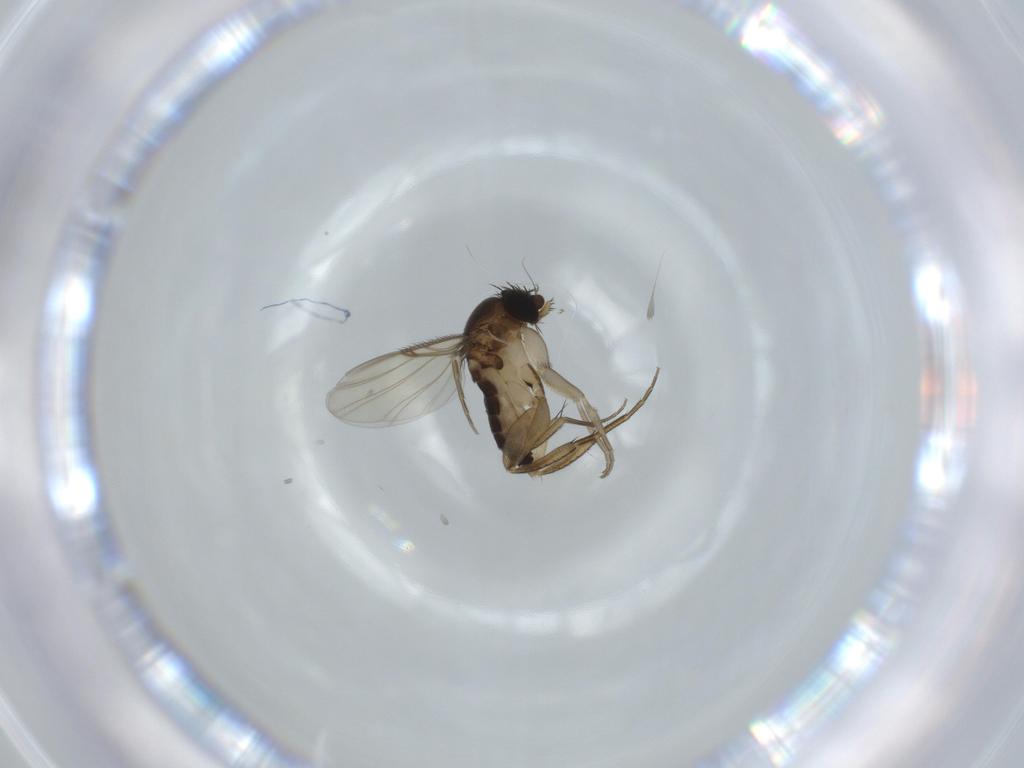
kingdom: Animalia
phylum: Arthropoda
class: Insecta
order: Diptera
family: Phoridae
